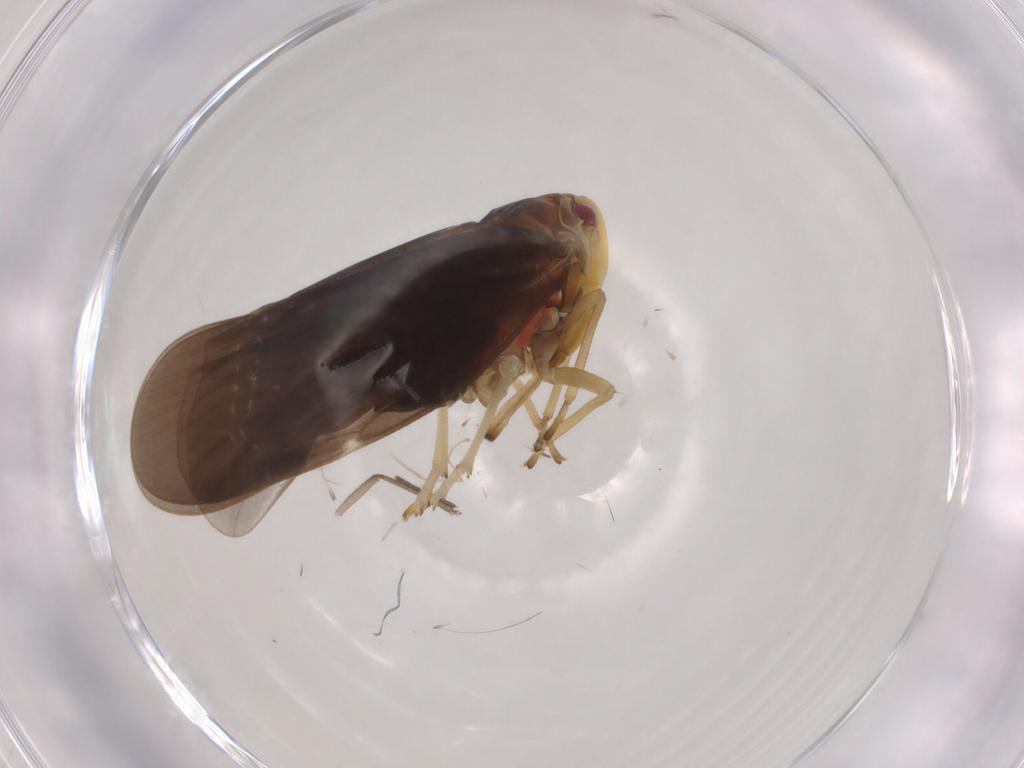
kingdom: Animalia
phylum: Arthropoda
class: Insecta
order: Hemiptera
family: Derbidae
